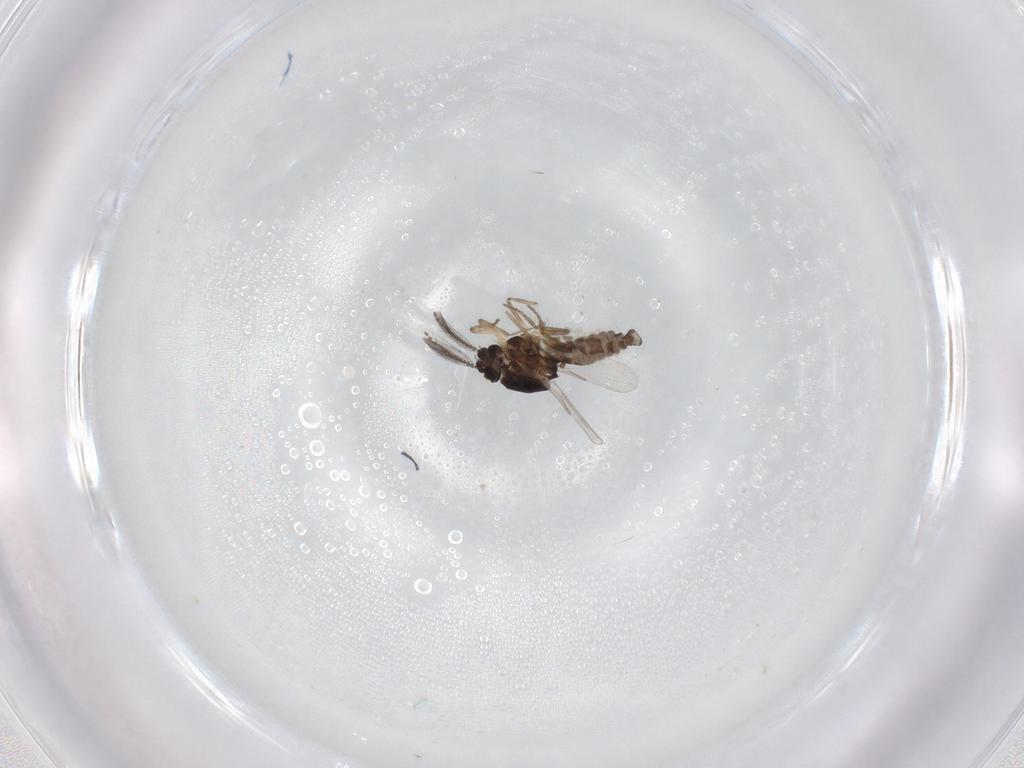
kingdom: Animalia
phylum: Arthropoda
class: Insecta
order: Diptera
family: Ceratopogonidae
